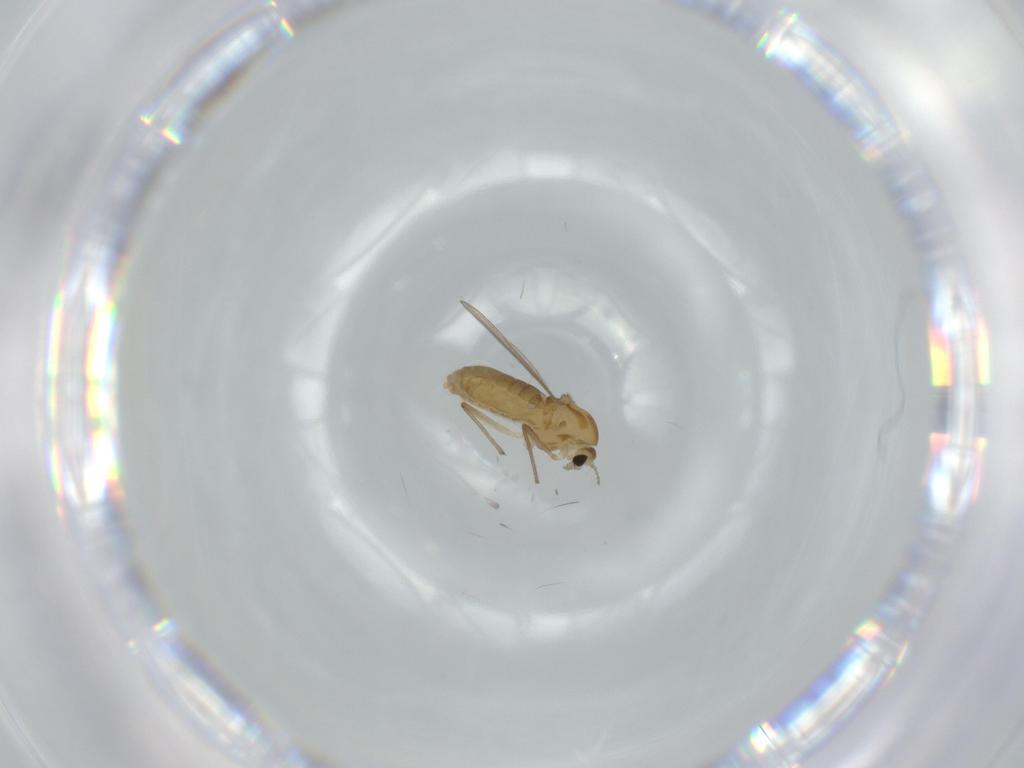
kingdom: Animalia
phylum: Arthropoda
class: Insecta
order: Diptera
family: Chironomidae
